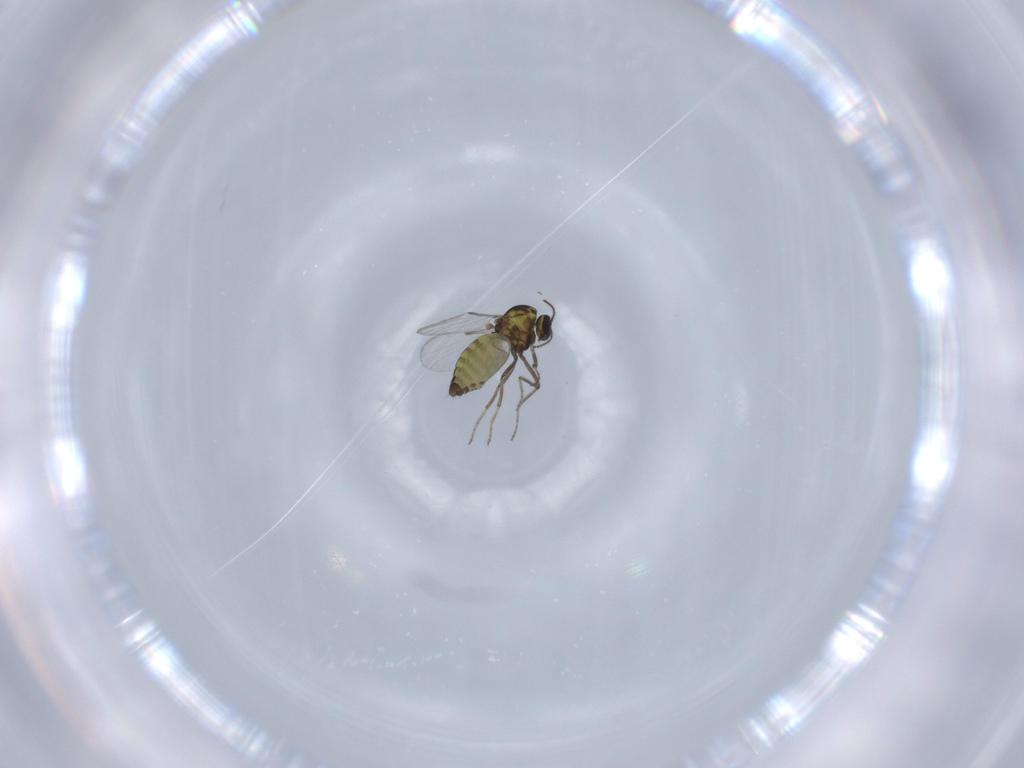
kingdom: Animalia
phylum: Arthropoda
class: Insecta
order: Diptera
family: Ceratopogonidae
